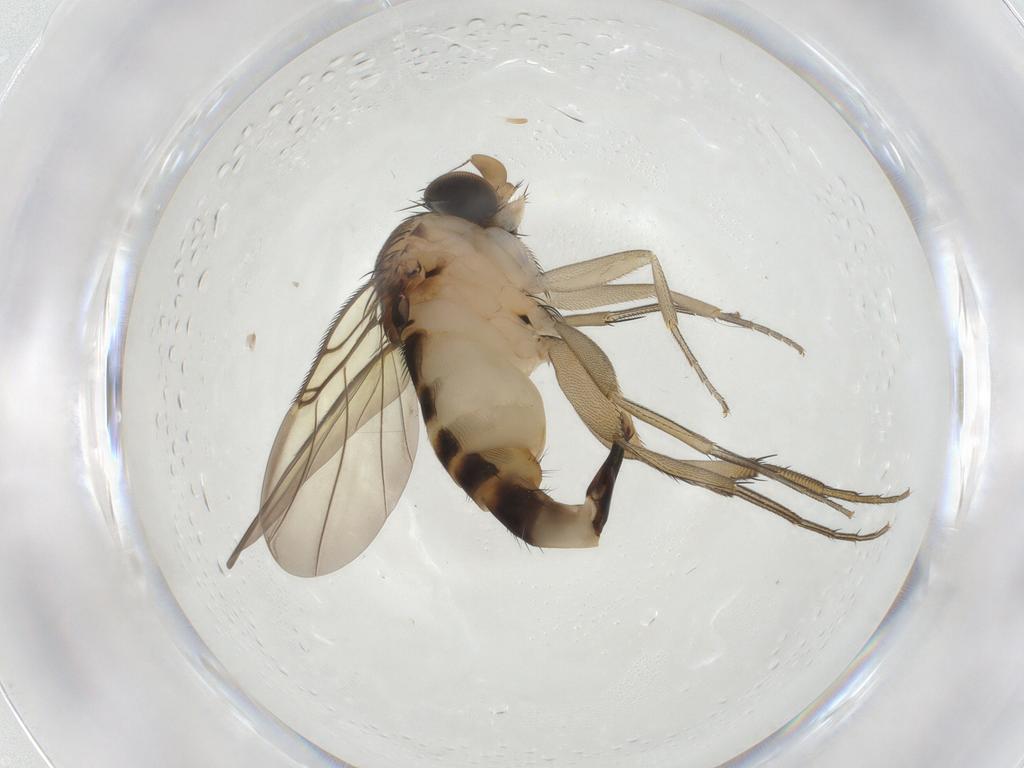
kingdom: Animalia
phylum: Arthropoda
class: Insecta
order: Diptera
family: Phoridae
